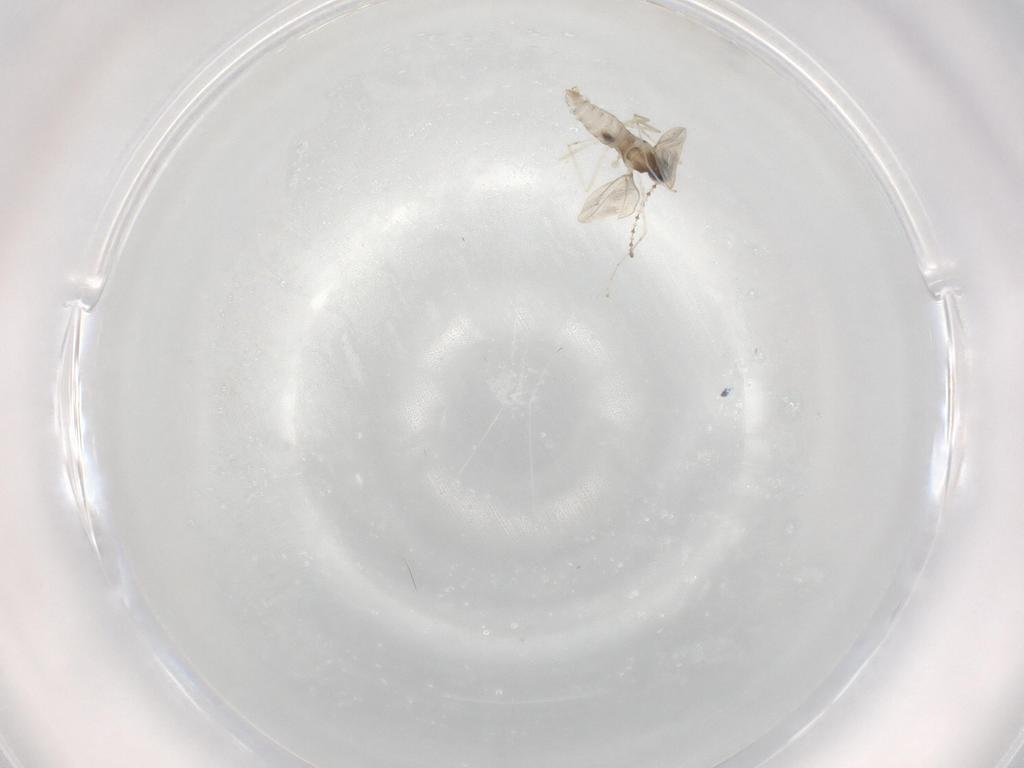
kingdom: Animalia
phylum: Arthropoda
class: Insecta
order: Diptera
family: Cecidomyiidae
